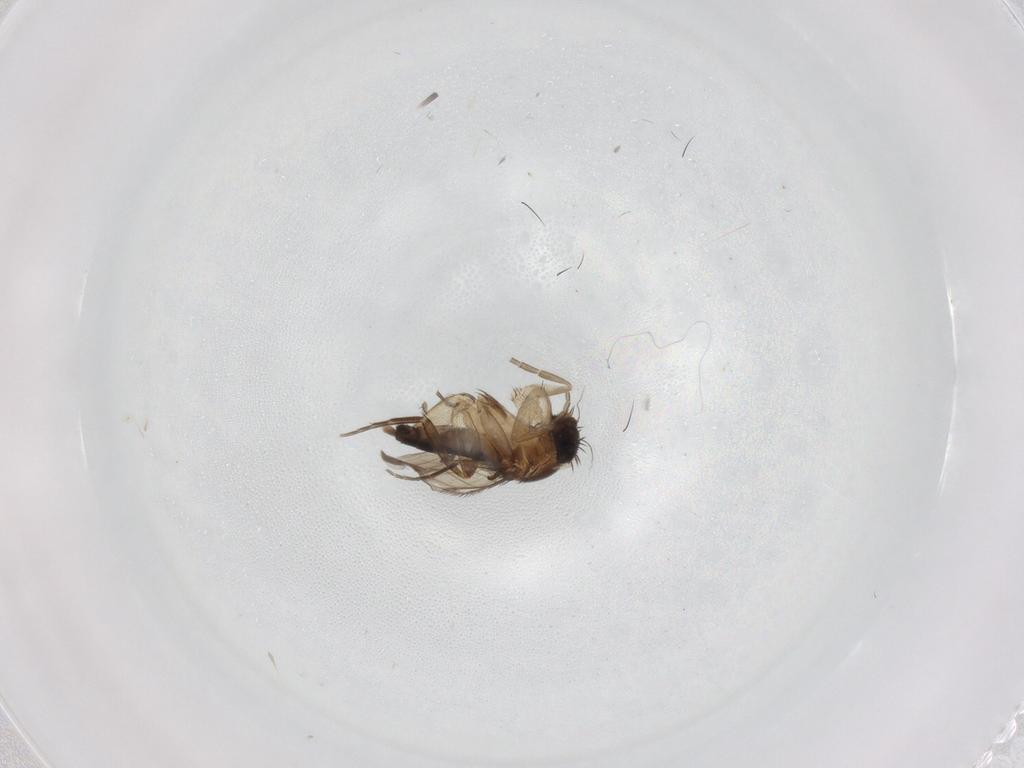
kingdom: Animalia
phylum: Arthropoda
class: Insecta
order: Diptera
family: Phoridae
